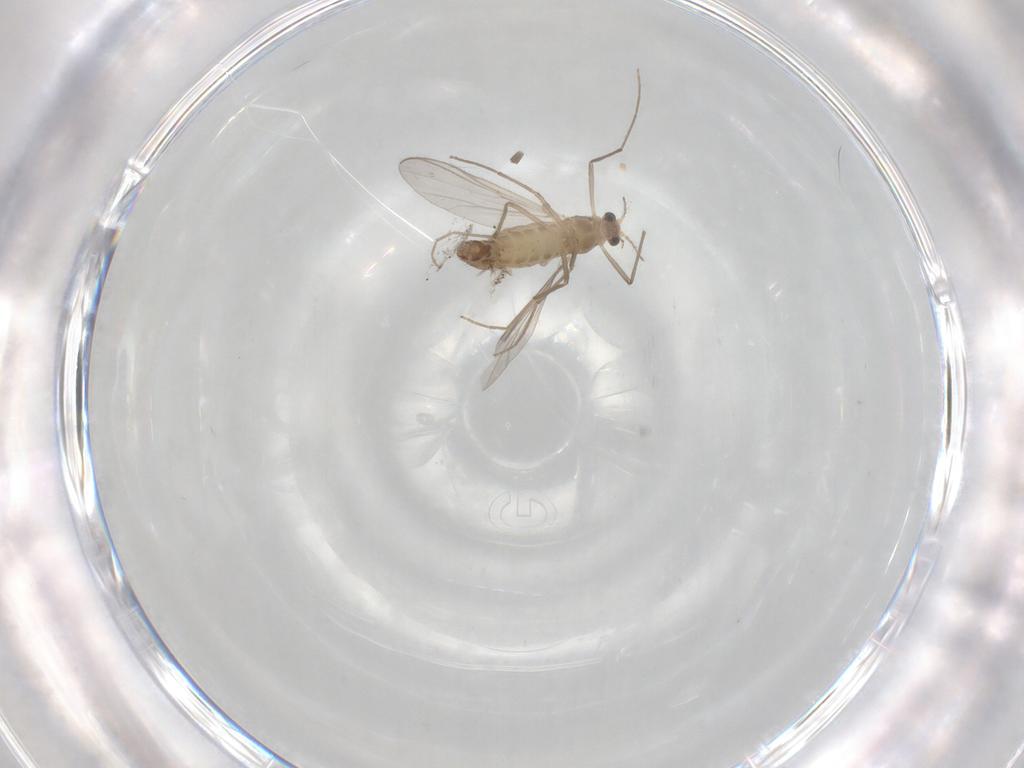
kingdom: Animalia
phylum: Arthropoda
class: Insecta
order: Diptera
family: Chironomidae
